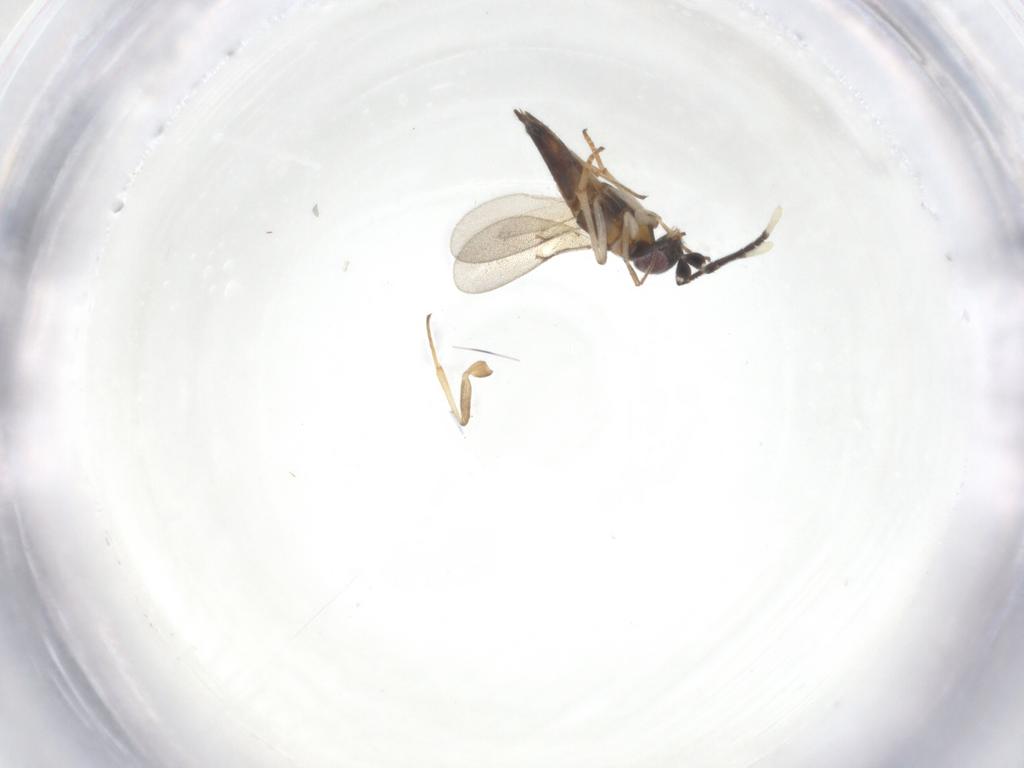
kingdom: Animalia
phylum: Arthropoda
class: Insecta
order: Hymenoptera
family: Encyrtidae
